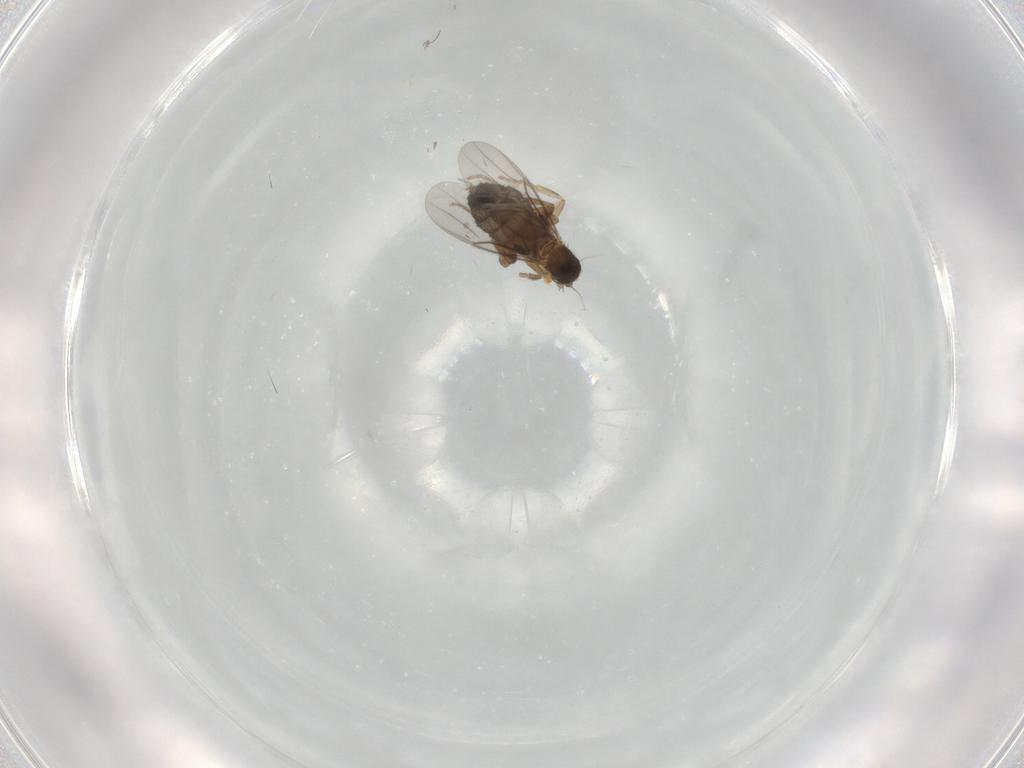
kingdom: Animalia
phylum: Arthropoda
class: Insecta
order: Diptera
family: Phoridae
